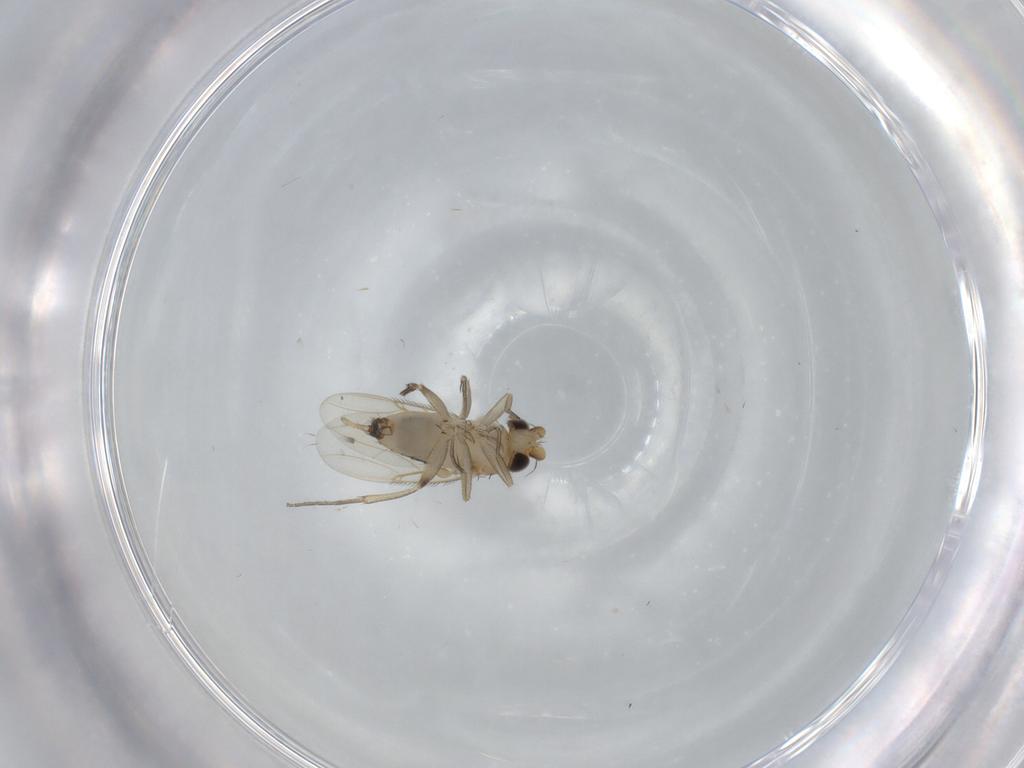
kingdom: Animalia
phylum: Arthropoda
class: Insecta
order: Diptera
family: Phoridae
